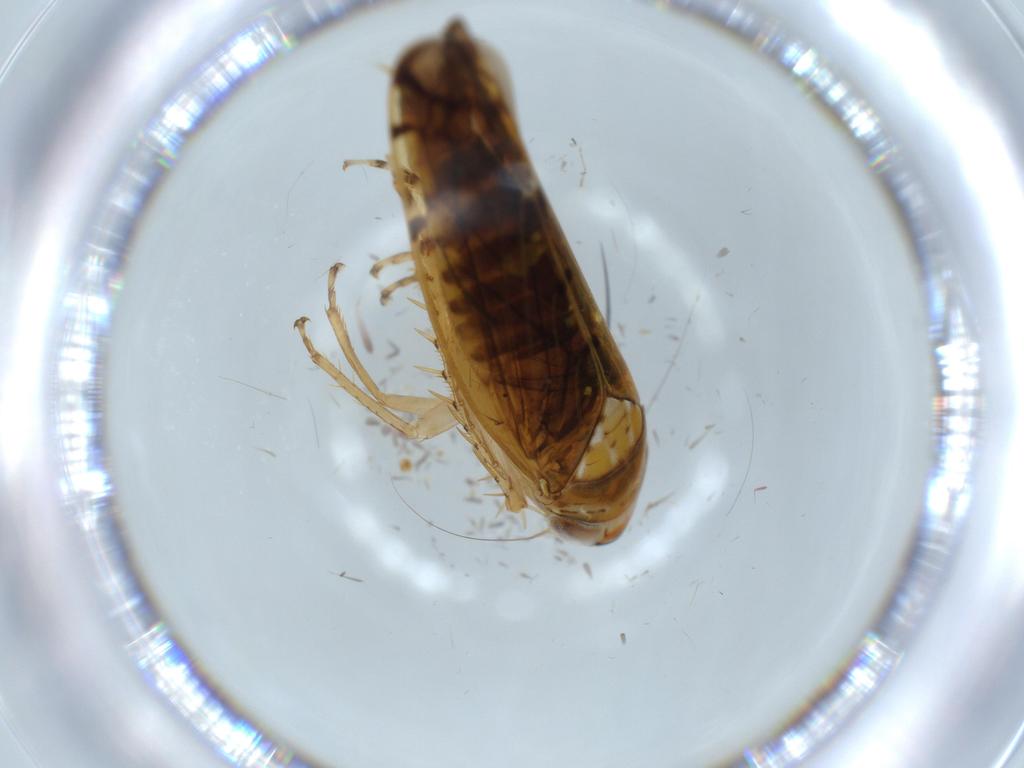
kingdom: Animalia
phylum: Arthropoda
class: Insecta
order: Hemiptera
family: Cicadellidae
